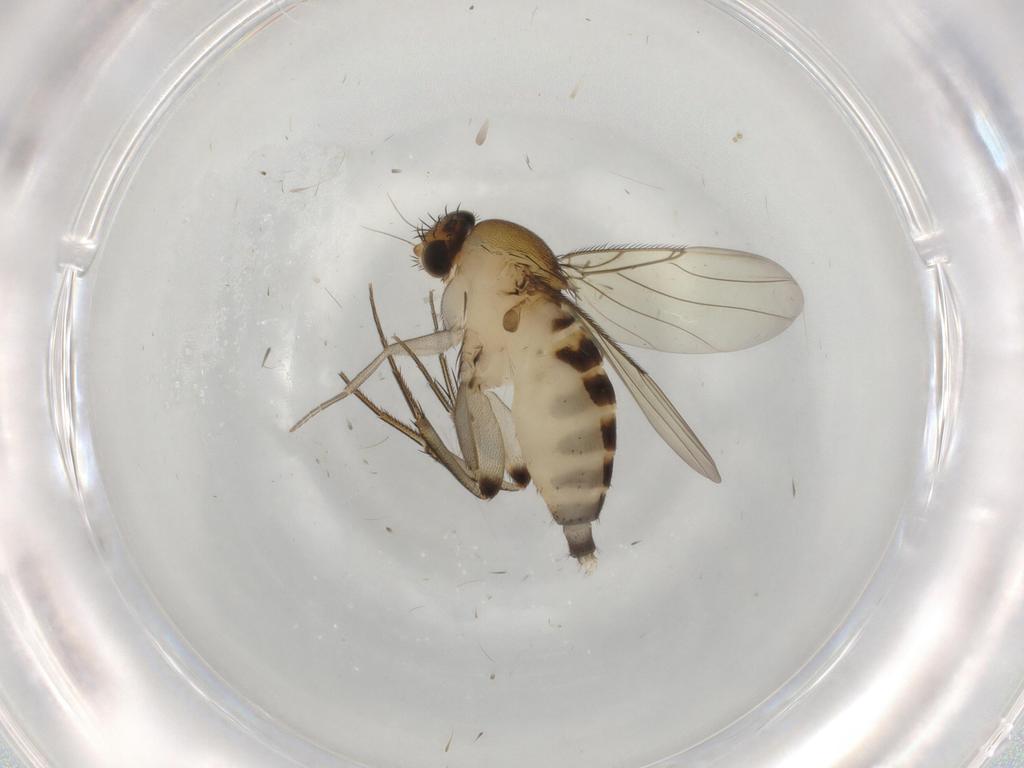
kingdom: Animalia
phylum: Arthropoda
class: Insecta
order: Diptera
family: Phoridae
